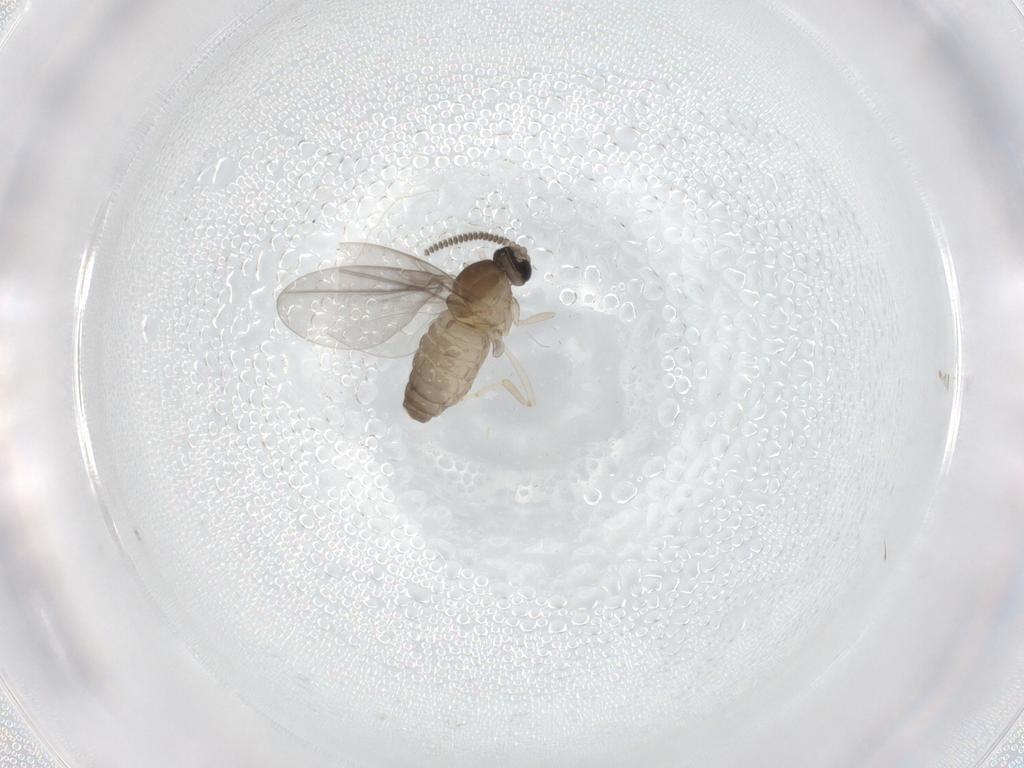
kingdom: Animalia
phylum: Arthropoda
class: Insecta
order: Diptera
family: Cecidomyiidae
